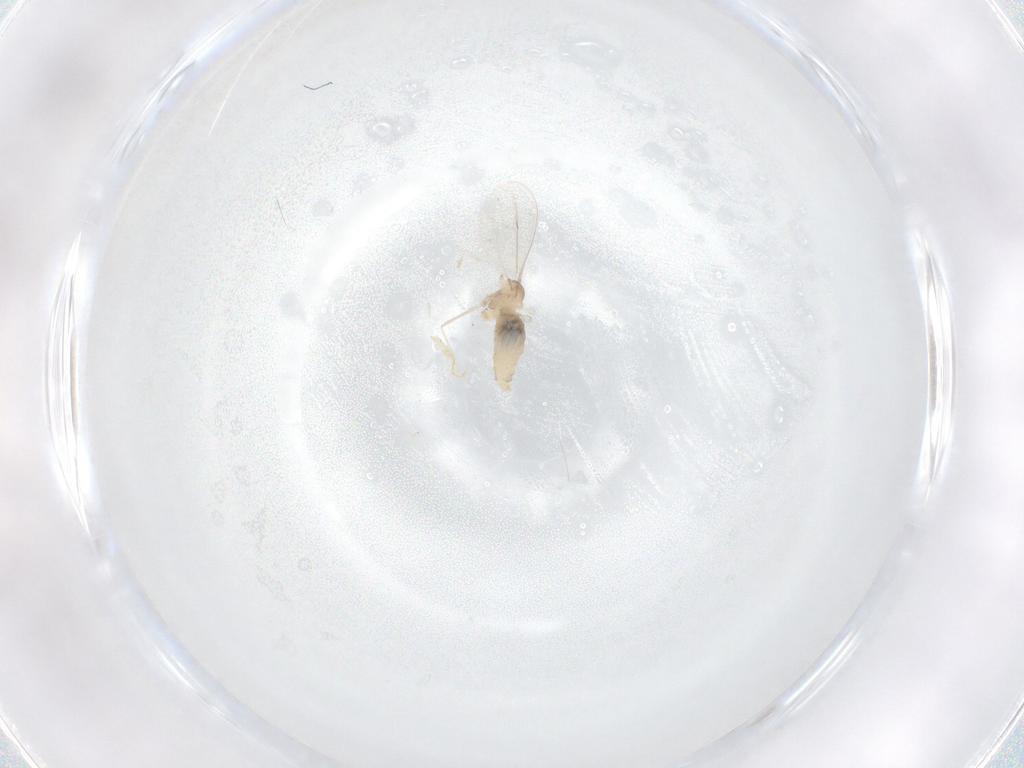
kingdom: Animalia
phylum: Arthropoda
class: Insecta
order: Diptera
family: Cecidomyiidae
